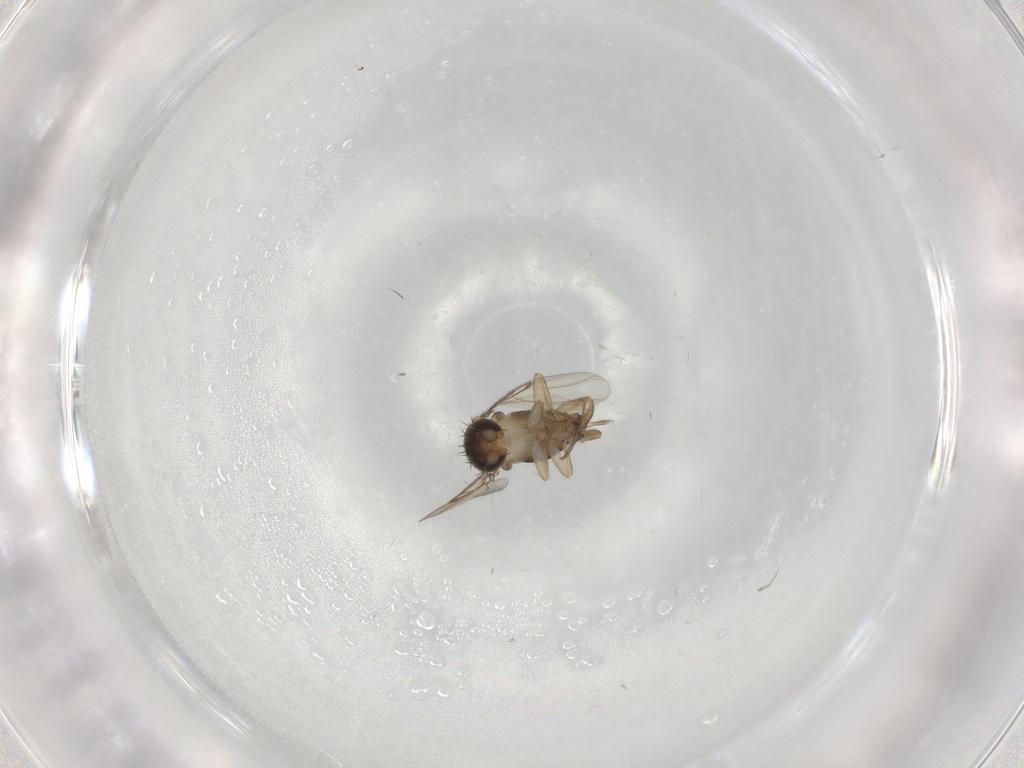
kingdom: Animalia
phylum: Arthropoda
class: Insecta
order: Diptera
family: Phoridae
